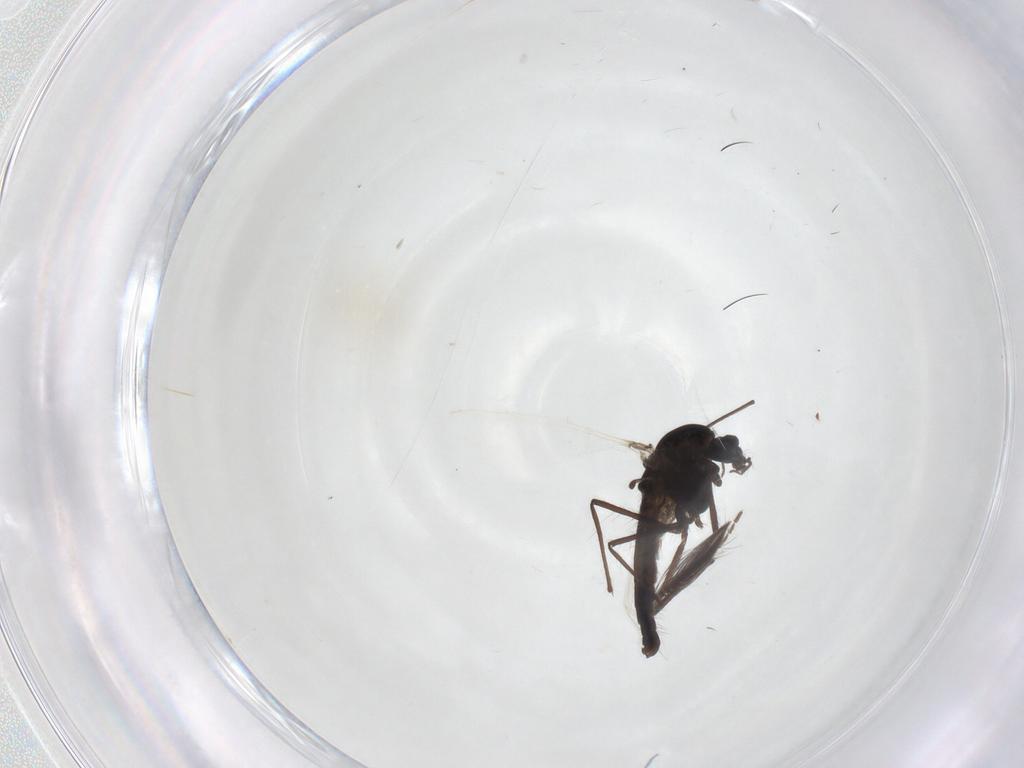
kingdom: Animalia
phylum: Arthropoda
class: Insecta
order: Diptera
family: Ceratopogonidae
